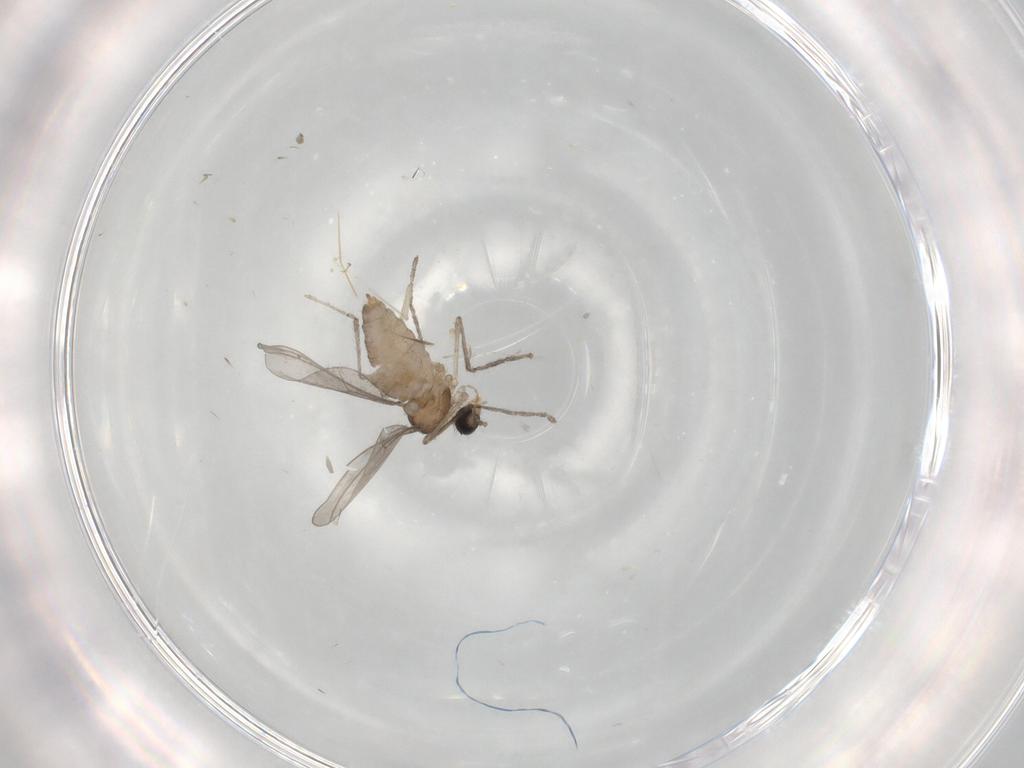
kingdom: Animalia
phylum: Arthropoda
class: Insecta
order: Diptera
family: Cecidomyiidae
